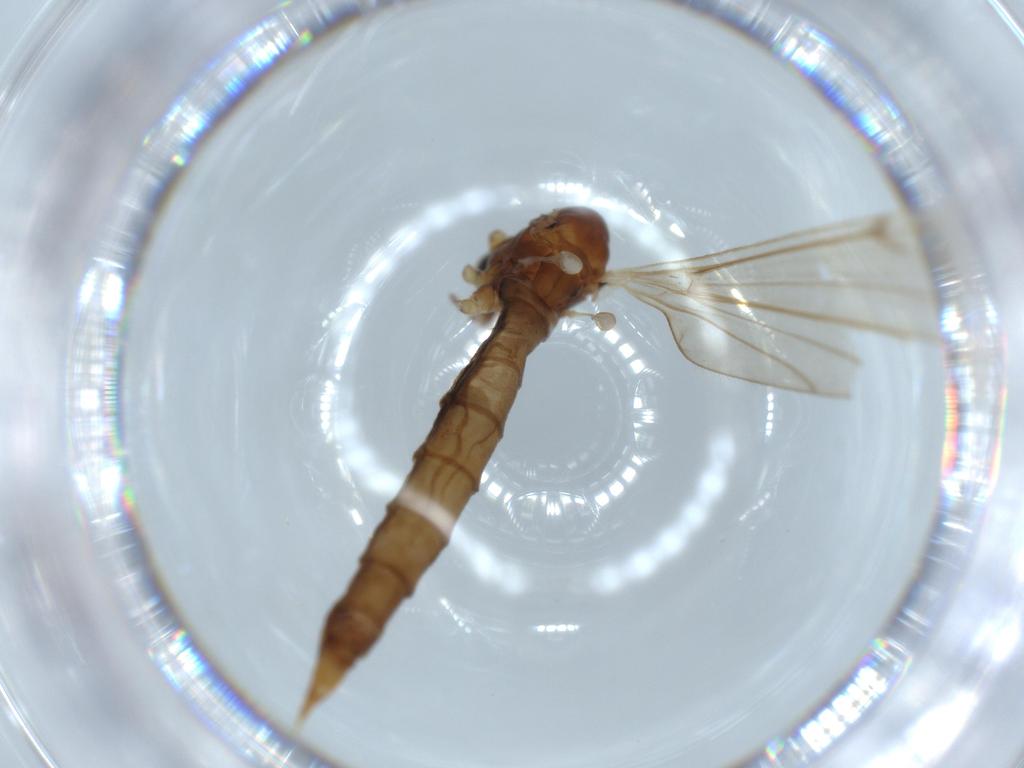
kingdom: Animalia
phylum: Arthropoda
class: Insecta
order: Diptera
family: Sciaridae
